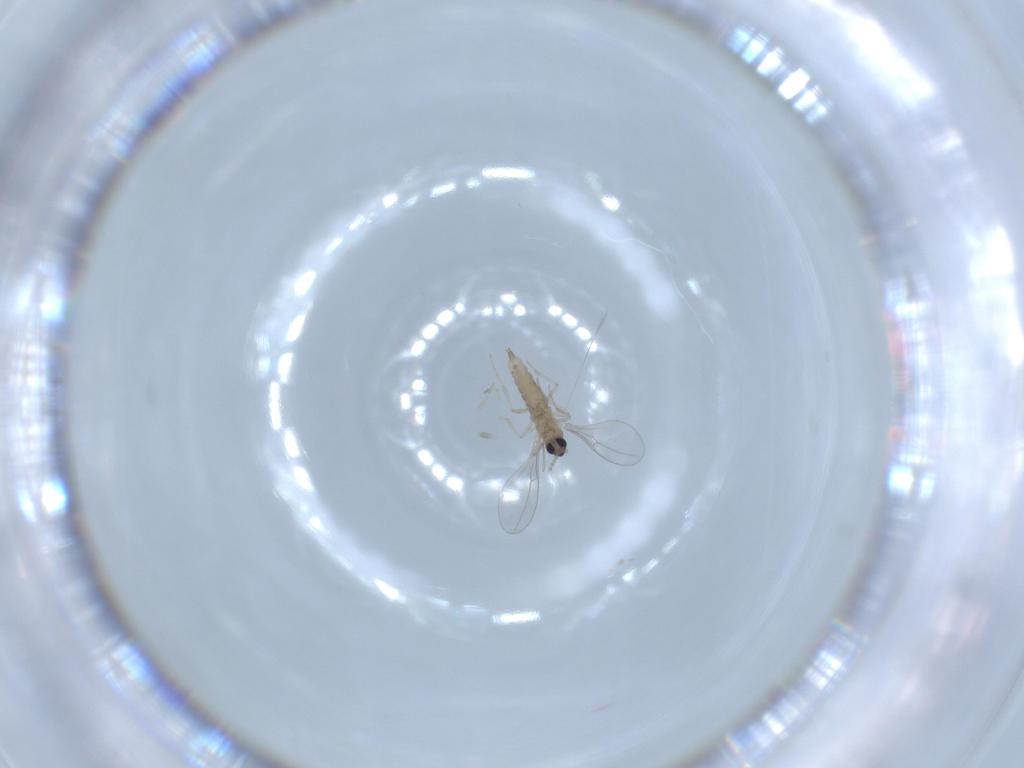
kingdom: Animalia
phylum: Arthropoda
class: Insecta
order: Diptera
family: Cecidomyiidae
